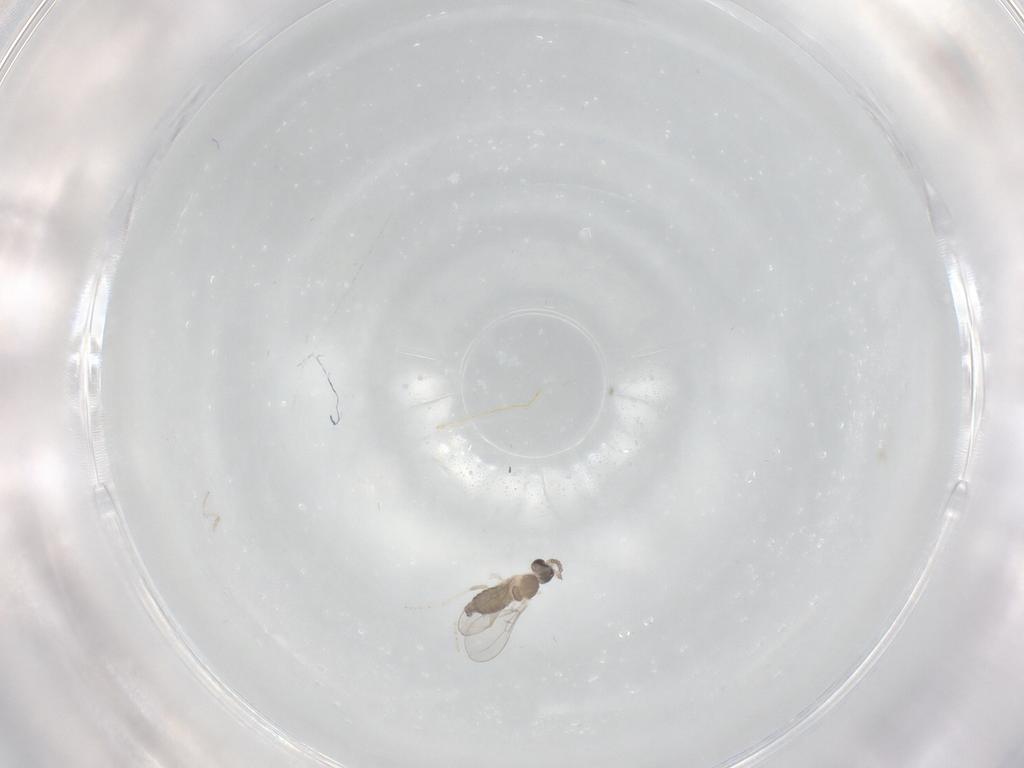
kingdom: Animalia
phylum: Arthropoda
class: Insecta
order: Diptera
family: Cecidomyiidae
